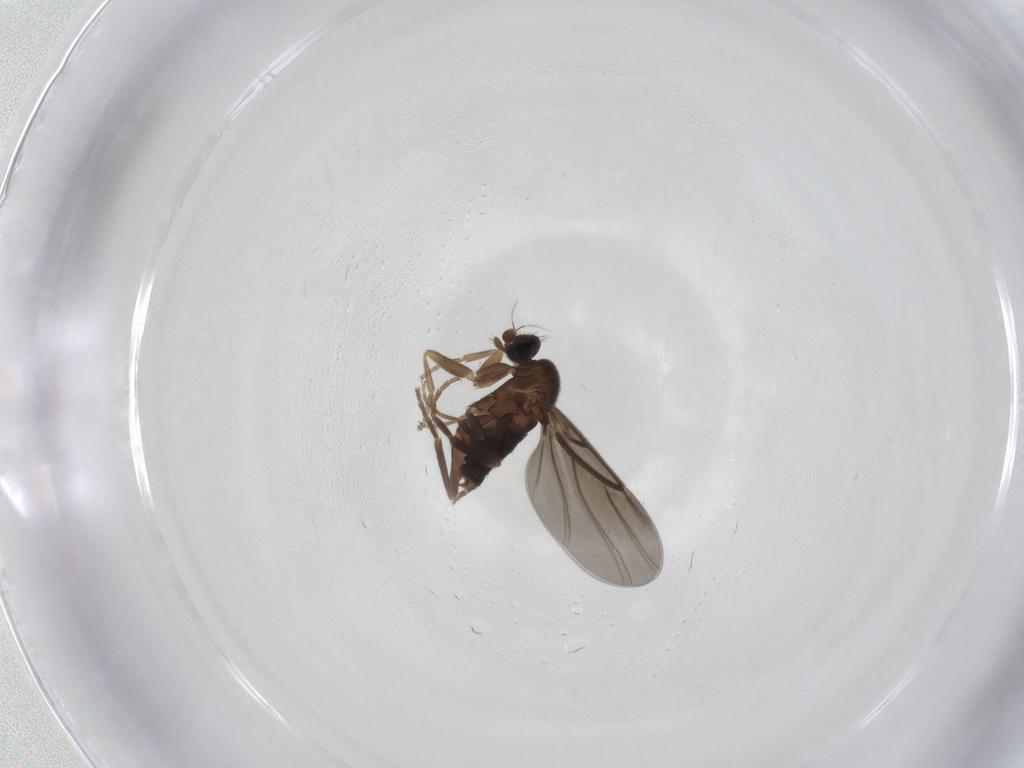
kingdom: Animalia
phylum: Arthropoda
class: Insecta
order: Diptera
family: Phoridae
